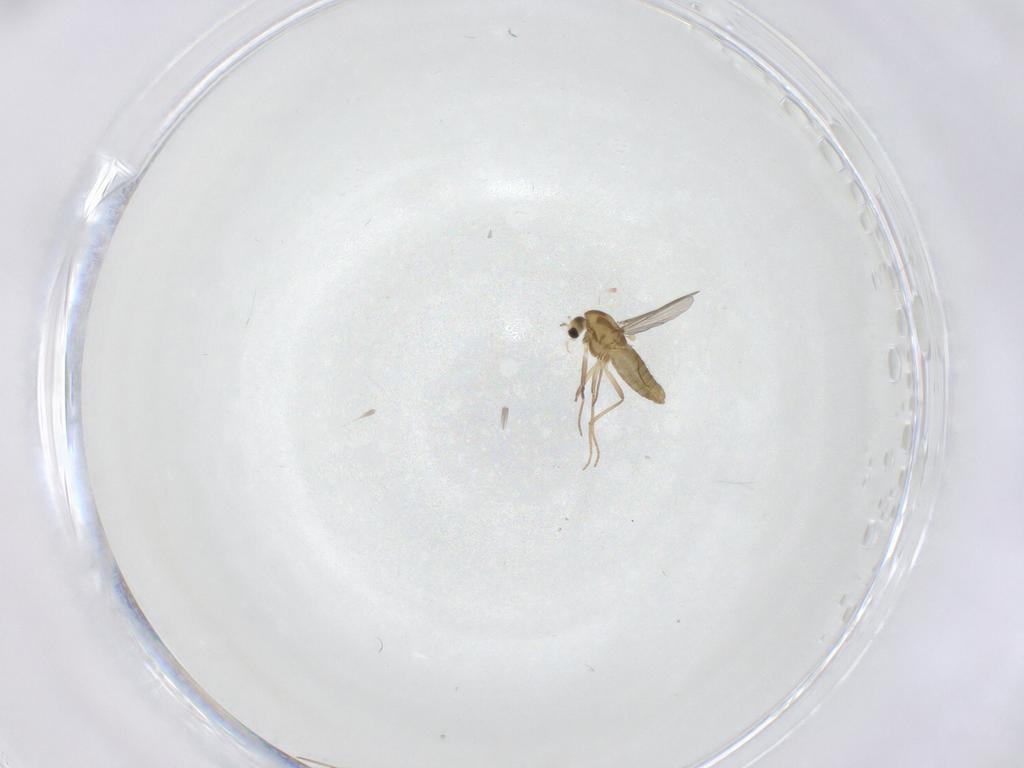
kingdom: Animalia
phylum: Arthropoda
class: Insecta
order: Diptera
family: Chironomidae
